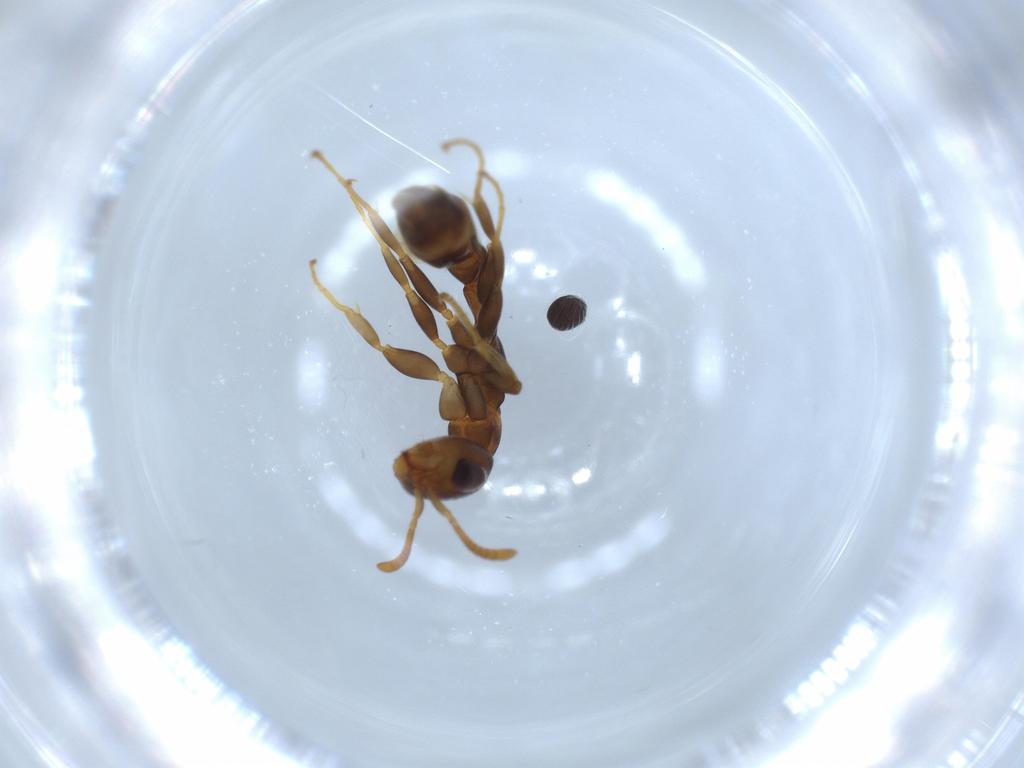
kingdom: Animalia
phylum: Arthropoda
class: Insecta
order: Hymenoptera
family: Formicidae
